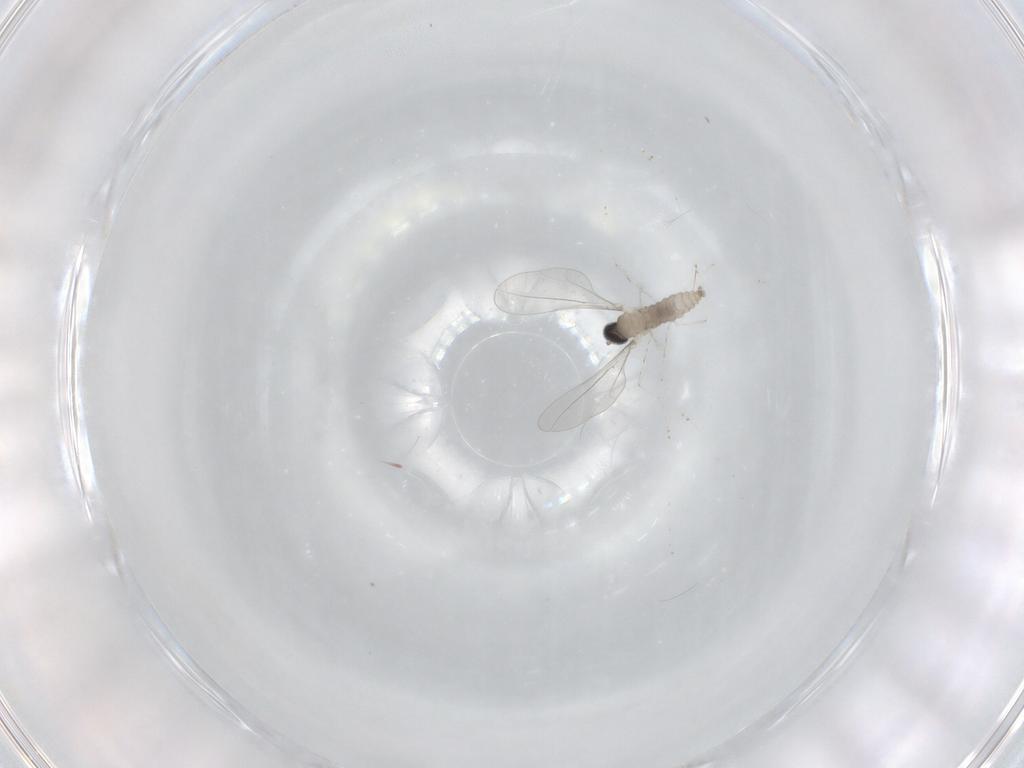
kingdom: Animalia
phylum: Arthropoda
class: Insecta
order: Diptera
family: Cecidomyiidae
